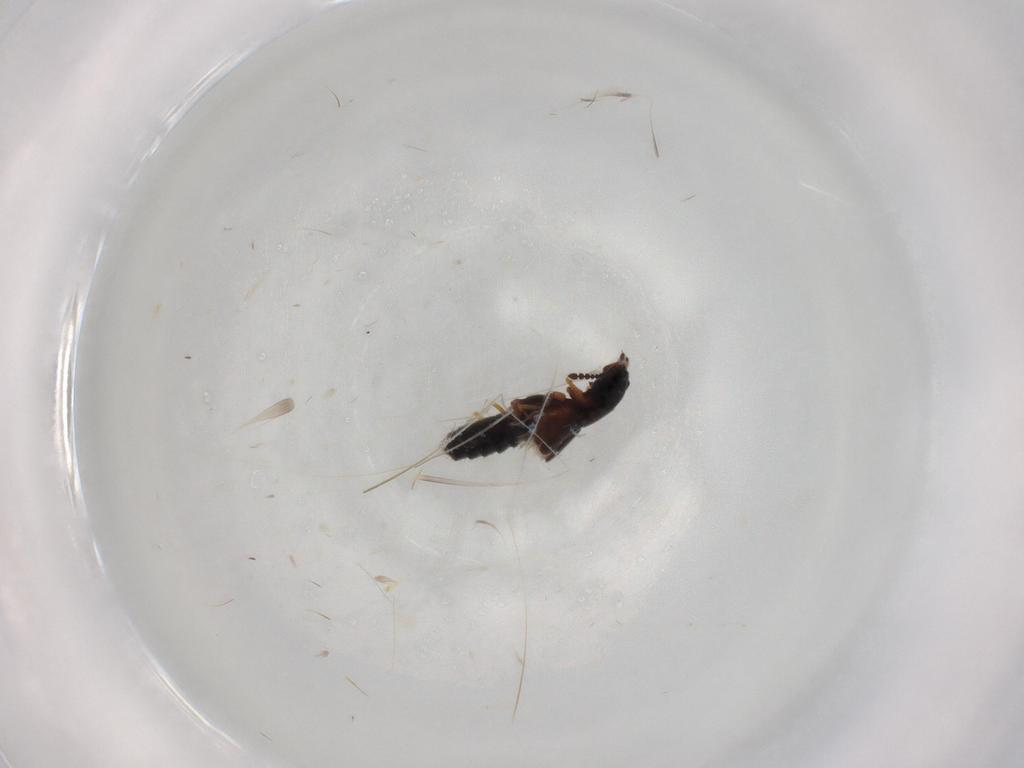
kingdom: Animalia
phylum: Arthropoda
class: Insecta
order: Coleoptera
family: Staphylinidae
